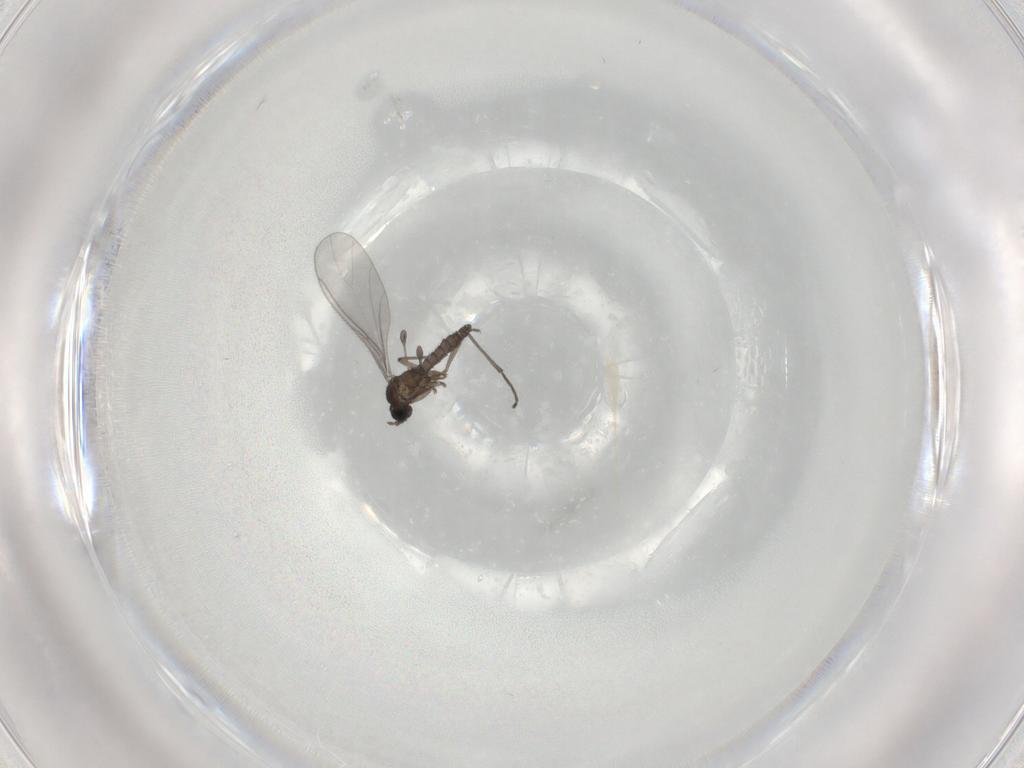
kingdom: Animalia
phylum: Arthropoda
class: Insecta
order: Diptera
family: Sciaridae
